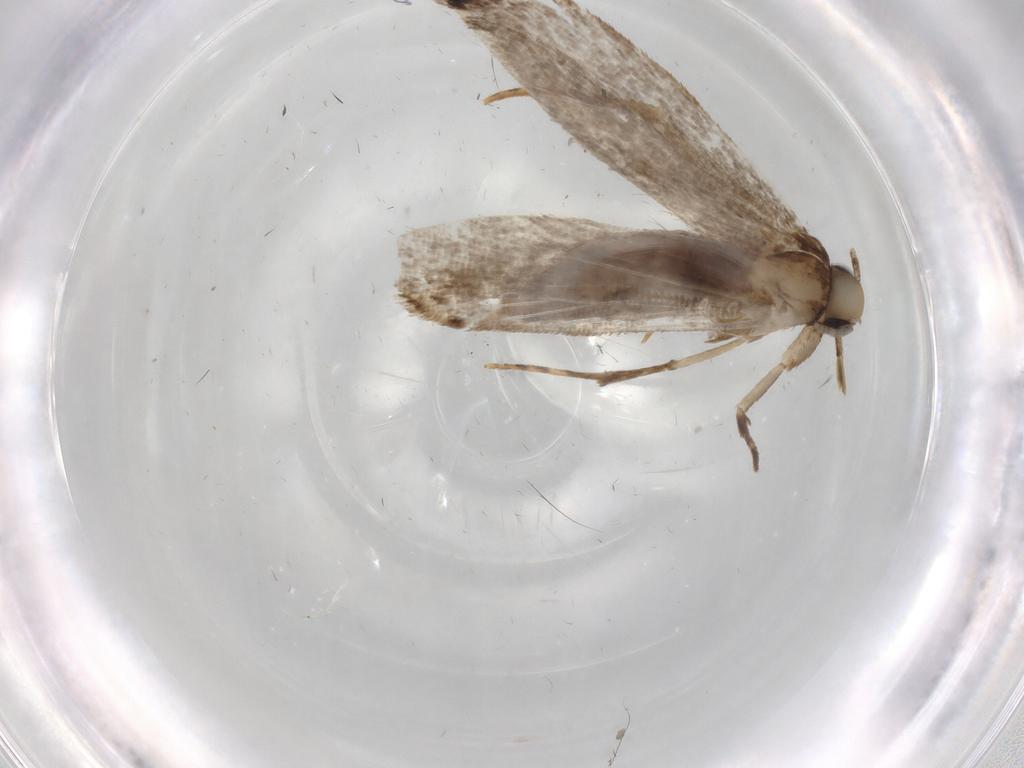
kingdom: Animalia
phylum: Arthropoda
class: Insecta
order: Lepidoptera
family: Tineidae
